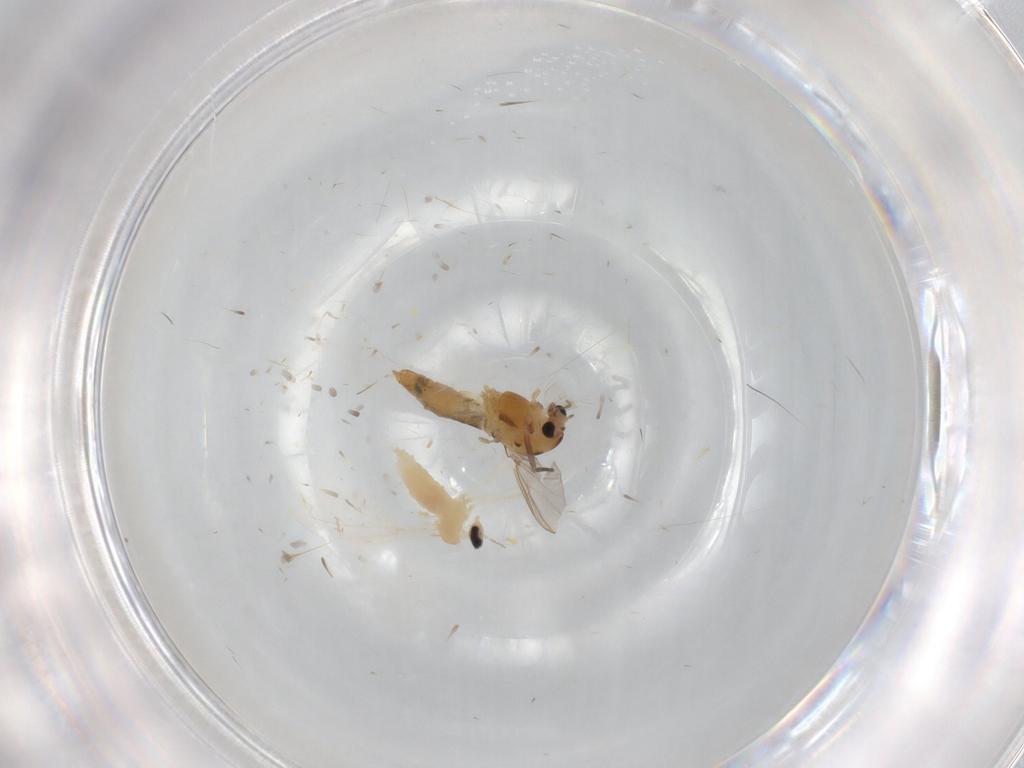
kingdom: Animalia
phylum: Arthropoda
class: Insecta
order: Diptera
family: Cecidomyiidae
